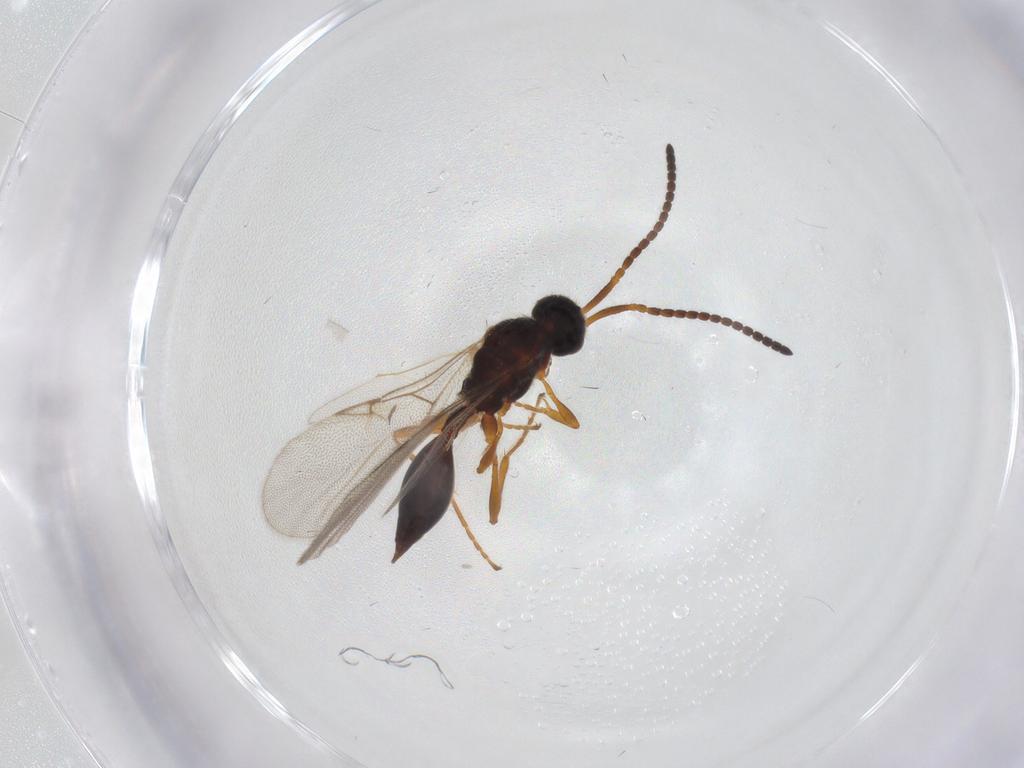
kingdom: Animalia
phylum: Arthropoda
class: Insecta
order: Hymenoptera
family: Diapriidae
